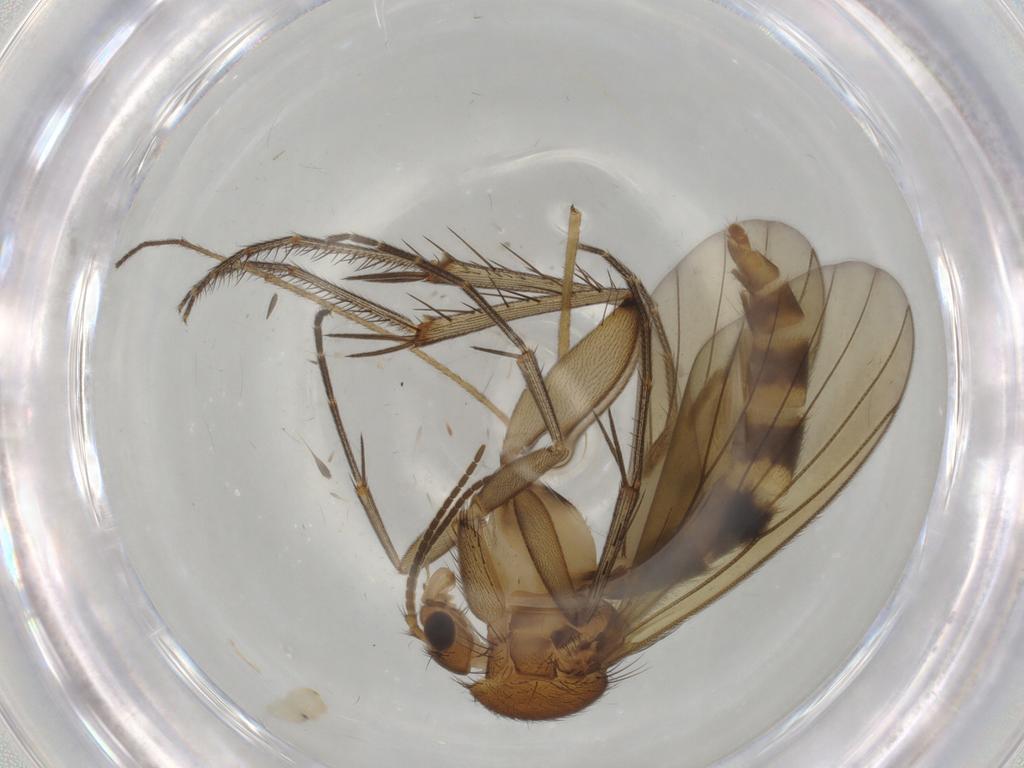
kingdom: Animalia
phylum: Arthropoda
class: Insecta
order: Diptera
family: Mycetophilidae
